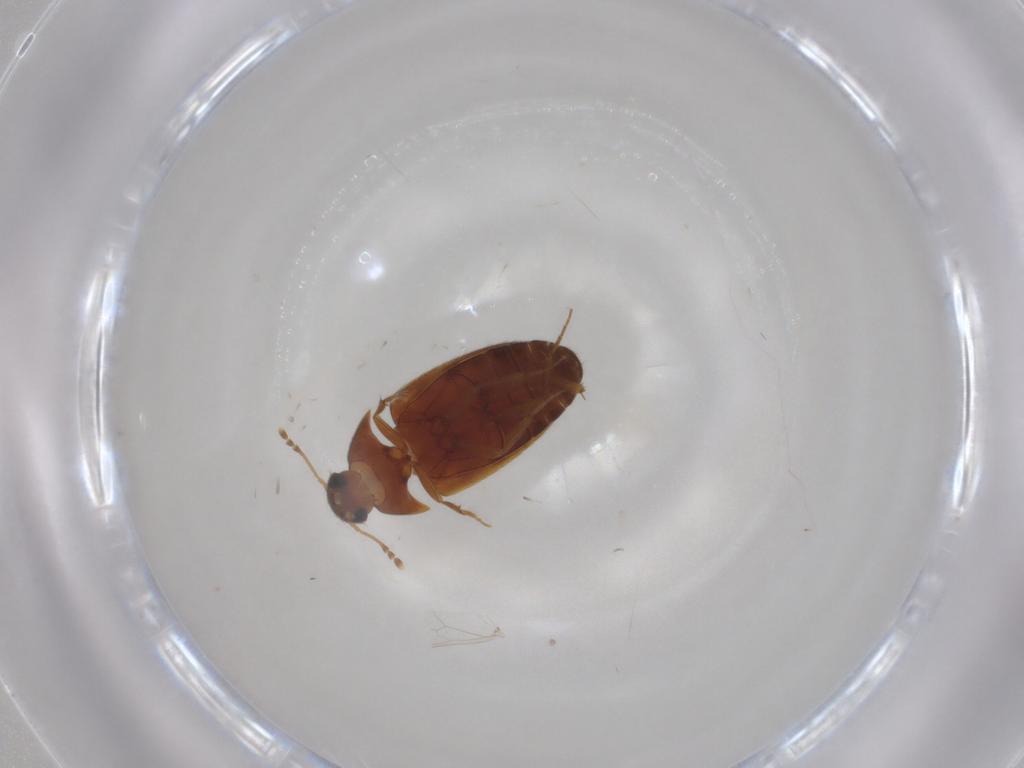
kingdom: Animalia
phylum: Arthropoda
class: Insecta
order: Coleoptera
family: Mycetophagidae
